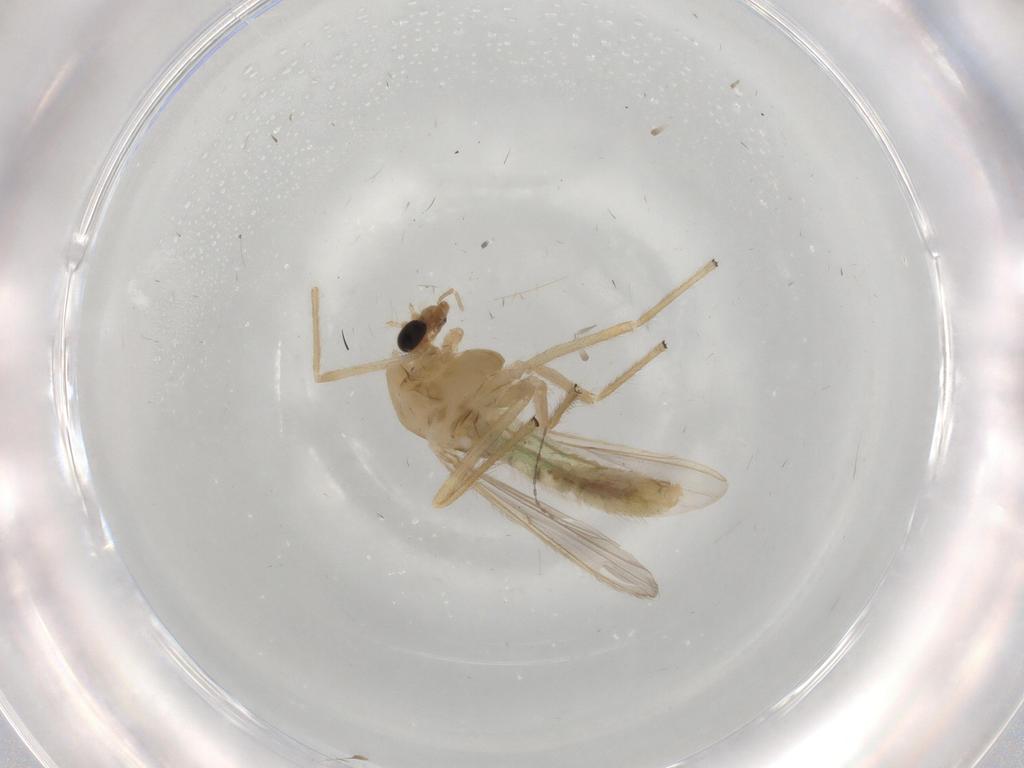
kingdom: Animalia
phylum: Arthropoda
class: Insecta
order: Diptera
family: Chironomidae
